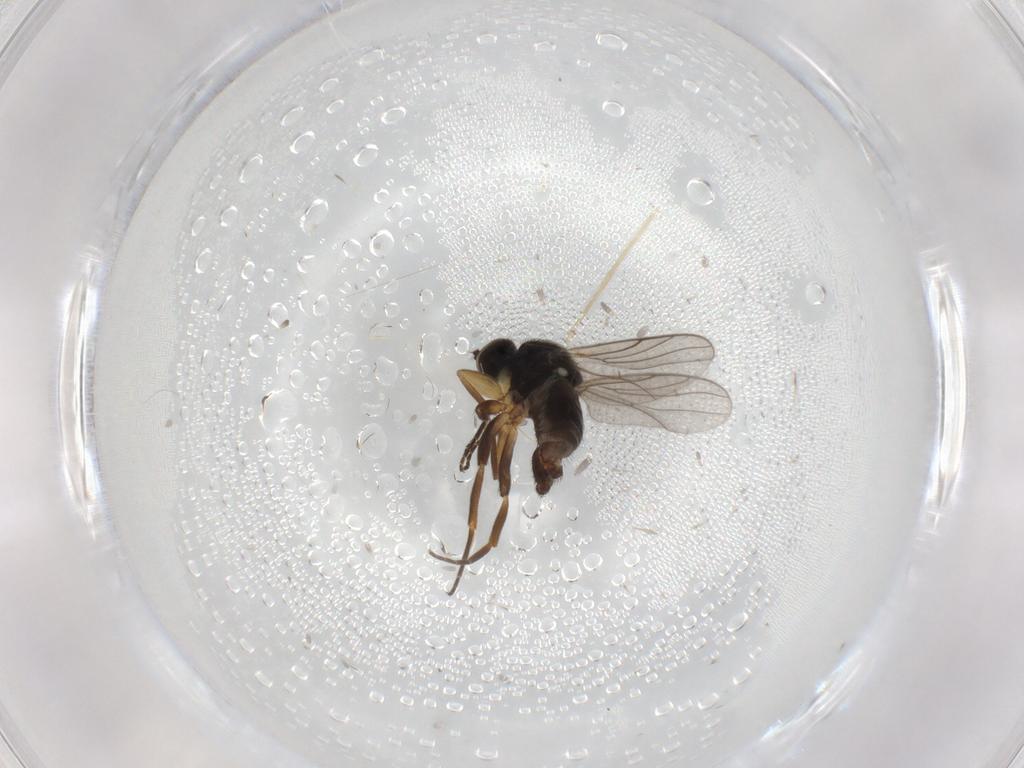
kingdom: Animalia
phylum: Arthropoda
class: Insecta
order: Diptera
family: Hybotidae
